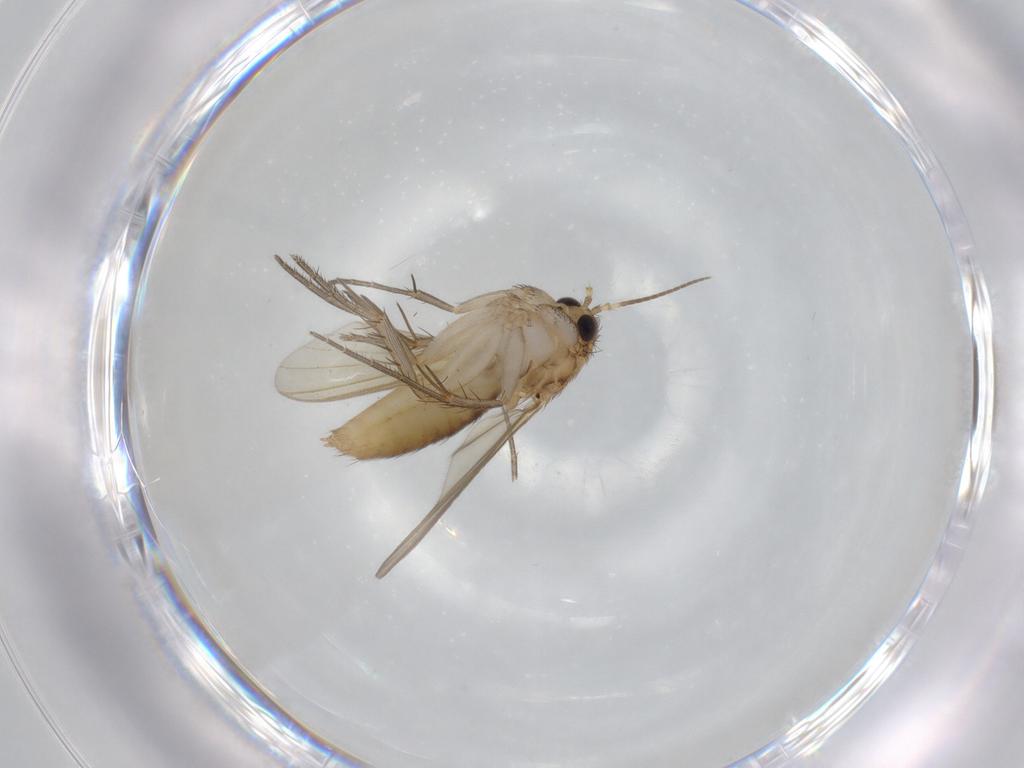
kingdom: Animalia
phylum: Arthropoda
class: Insecta
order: Diptera
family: Mycetophilidae
